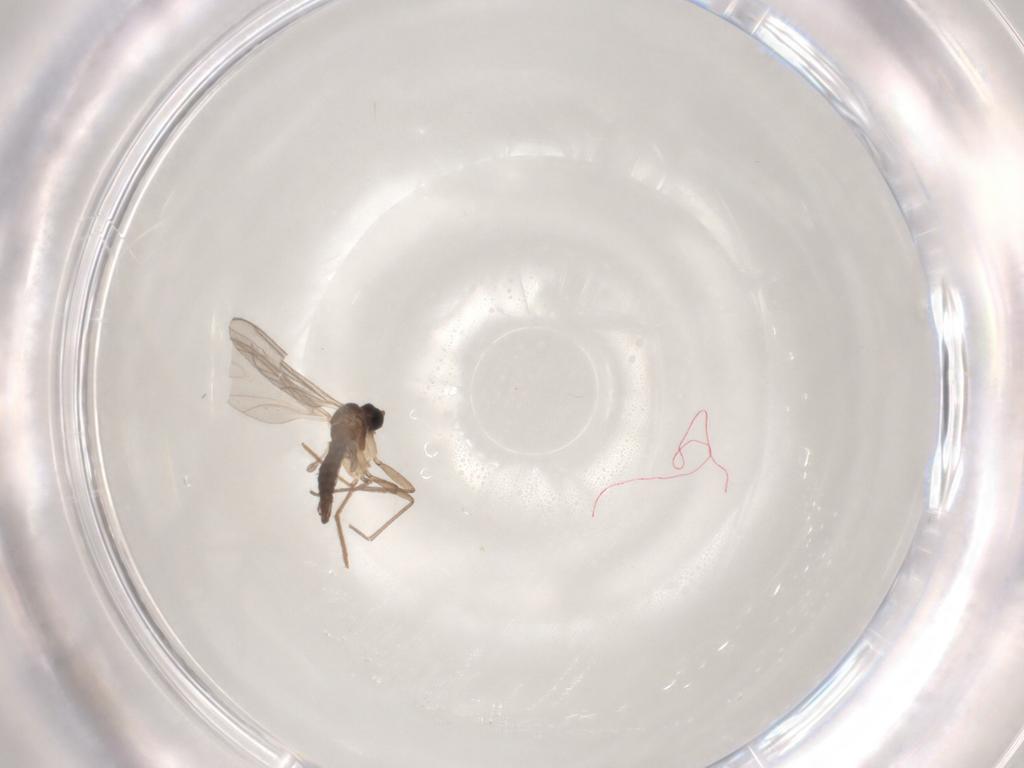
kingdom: Animalia
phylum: Arthropoda
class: Insecta
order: Diptera
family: Sciaridae
